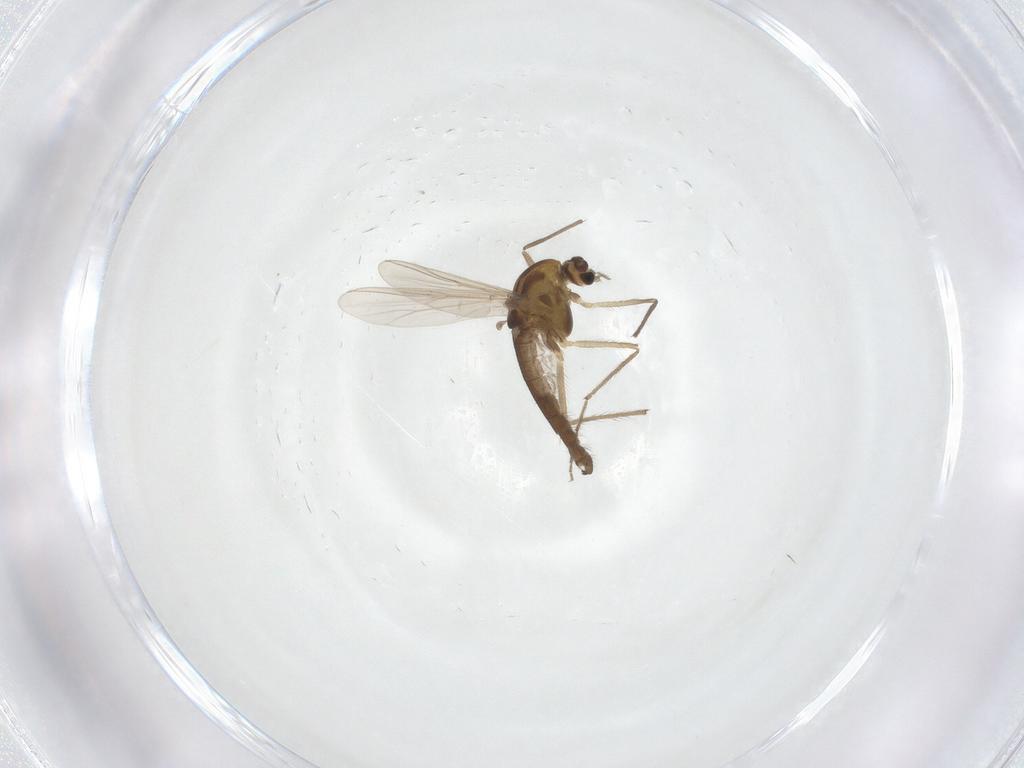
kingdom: Animalia
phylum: Arthropoda
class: Insecta
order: Diptera
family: Chironomidae
